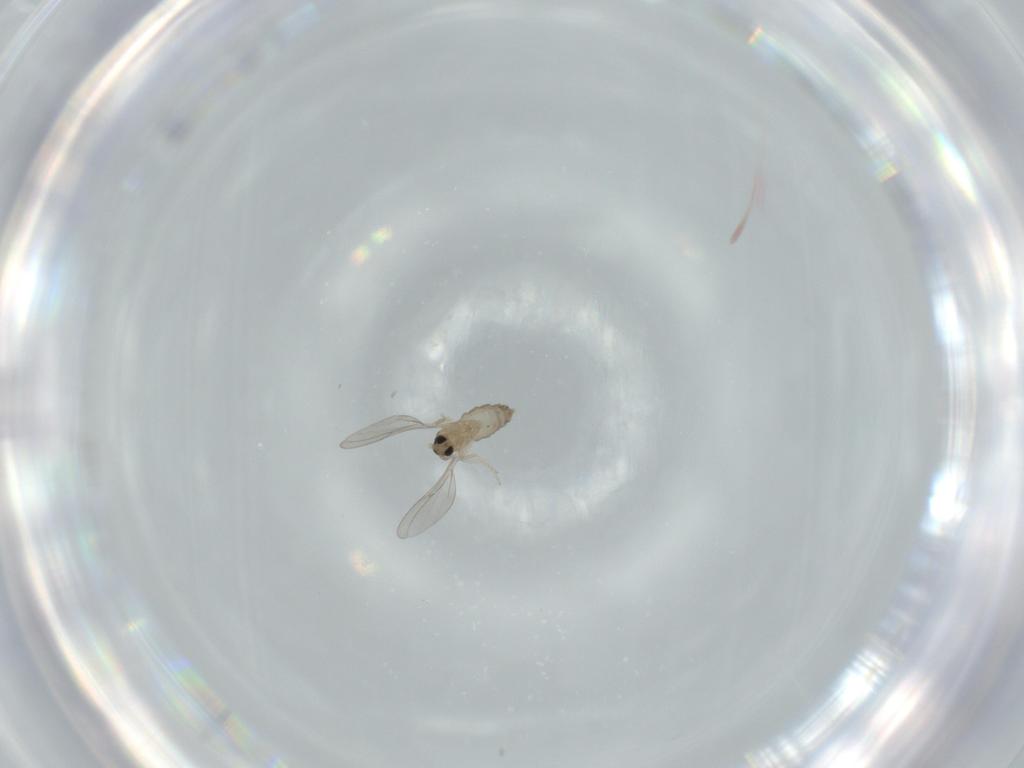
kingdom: Animalia
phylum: Arthropoda
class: Insecta
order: Diptera
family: Cecidomyiidae
